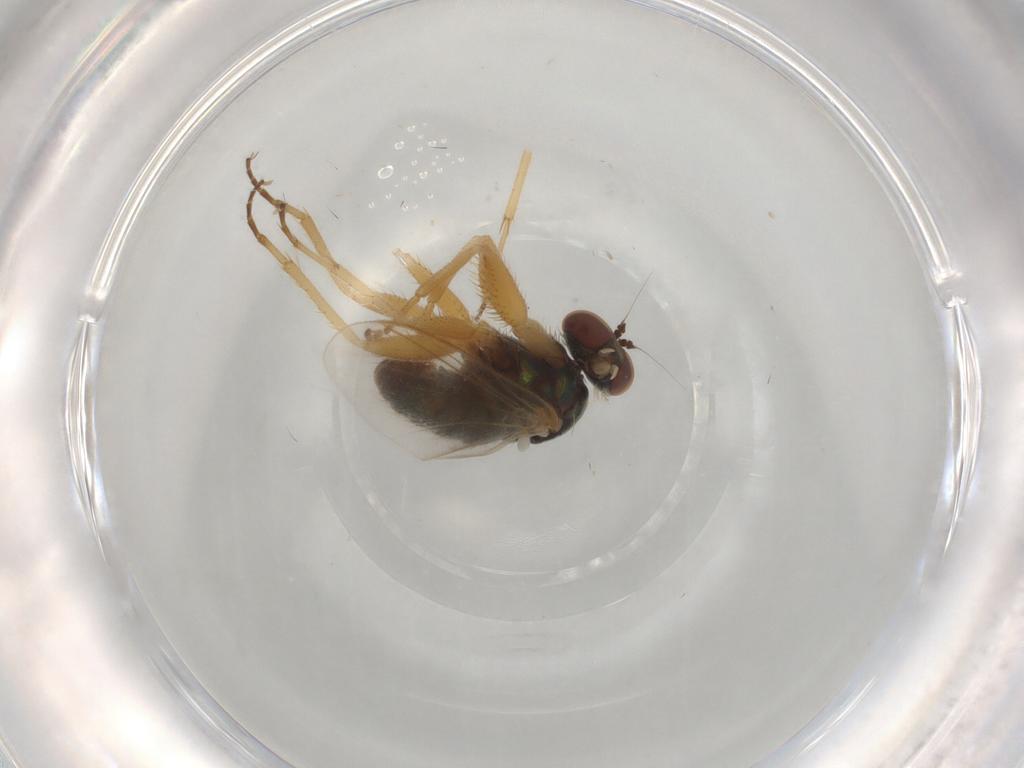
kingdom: Animalia
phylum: Arthropoda
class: Insecta
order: Diptera
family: Dolichopodidae
